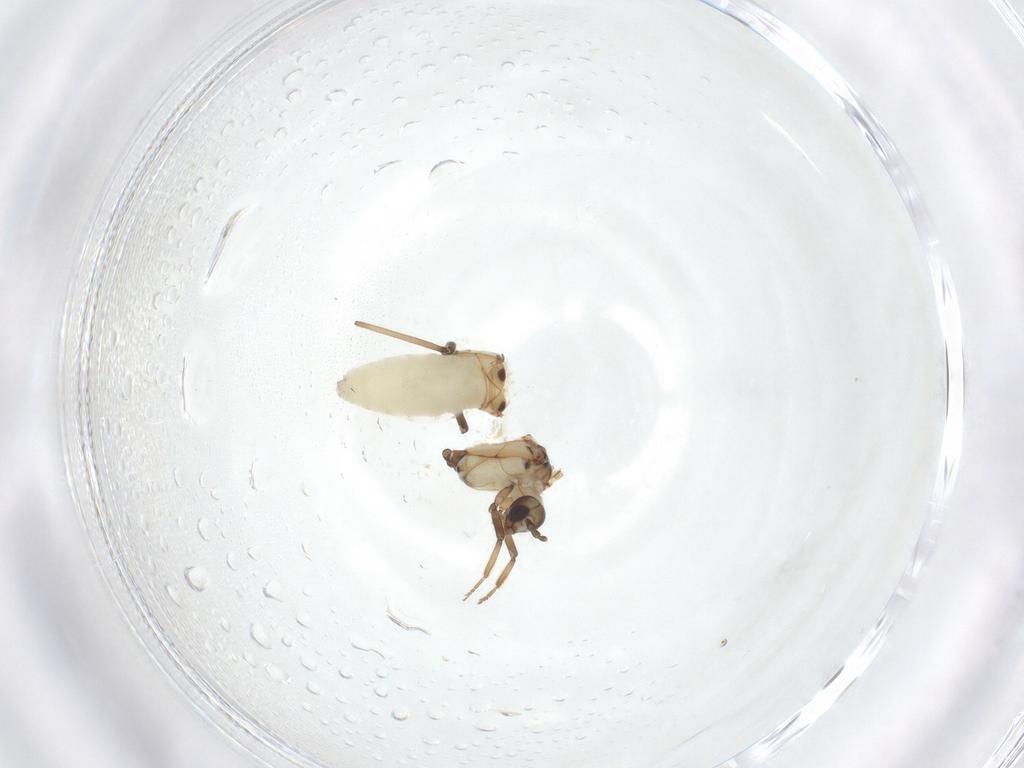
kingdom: Animalia
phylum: Arthropoda
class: Insecta
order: Neuroptera
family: Coniopterygidae
